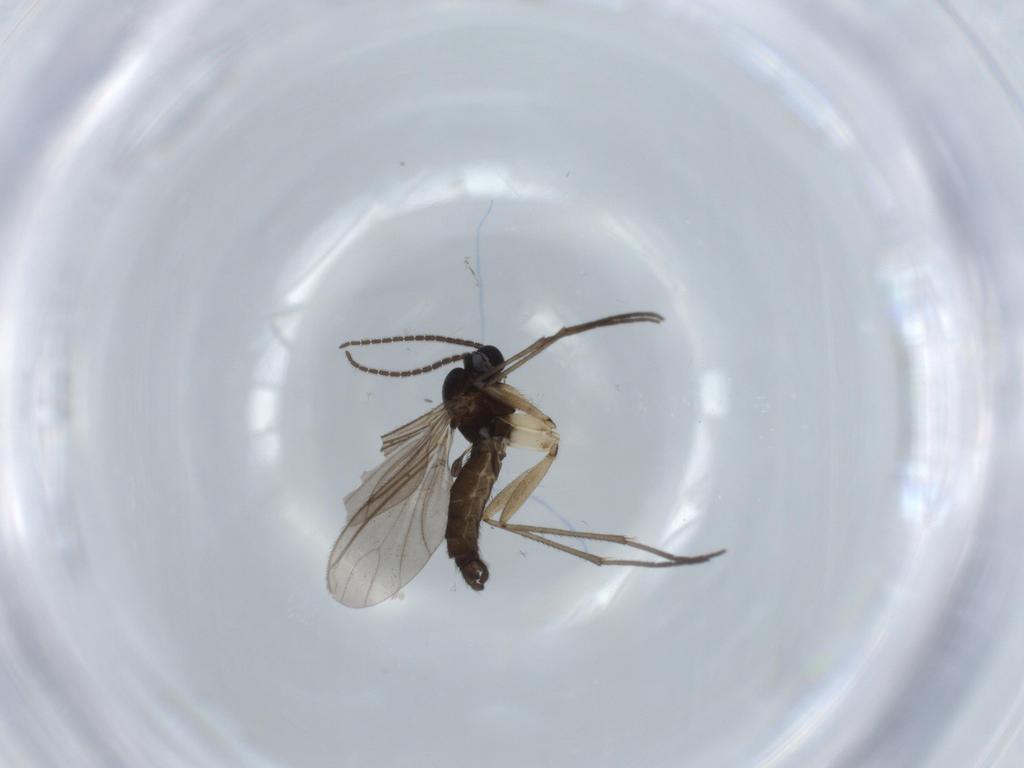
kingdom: Animalia
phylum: Arthropoda
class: Insecta
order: Diptera
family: Sciaridae
